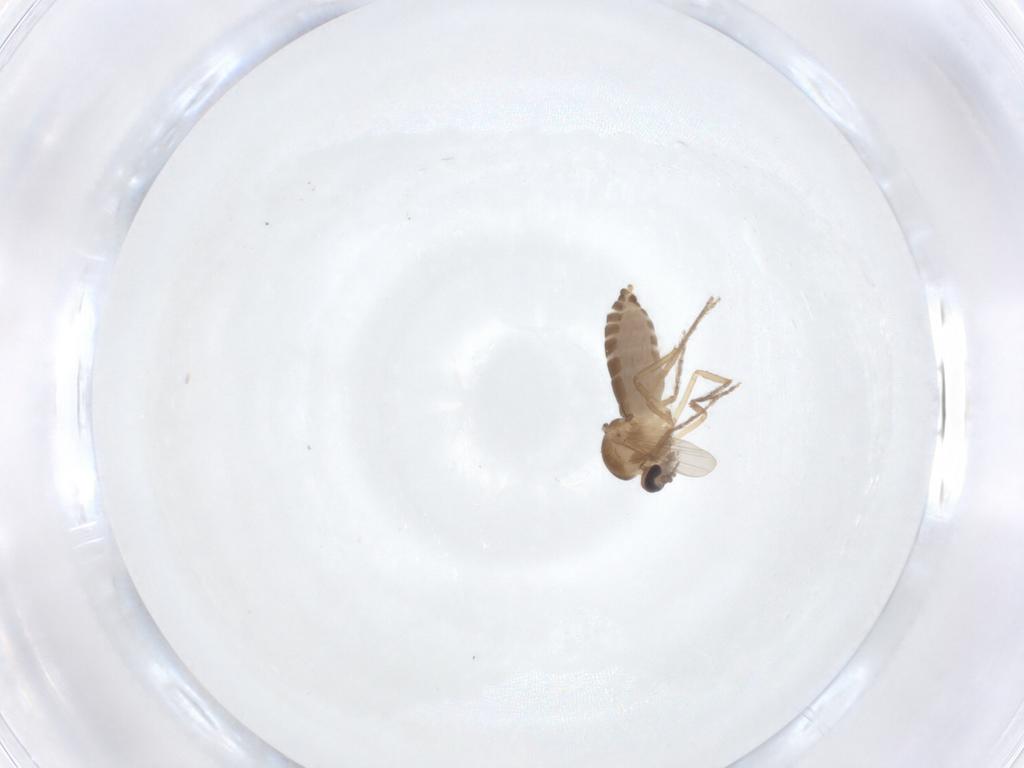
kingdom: Animalia
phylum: Arthropoda
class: Insecta
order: Diptera
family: Ceratopogonidae
